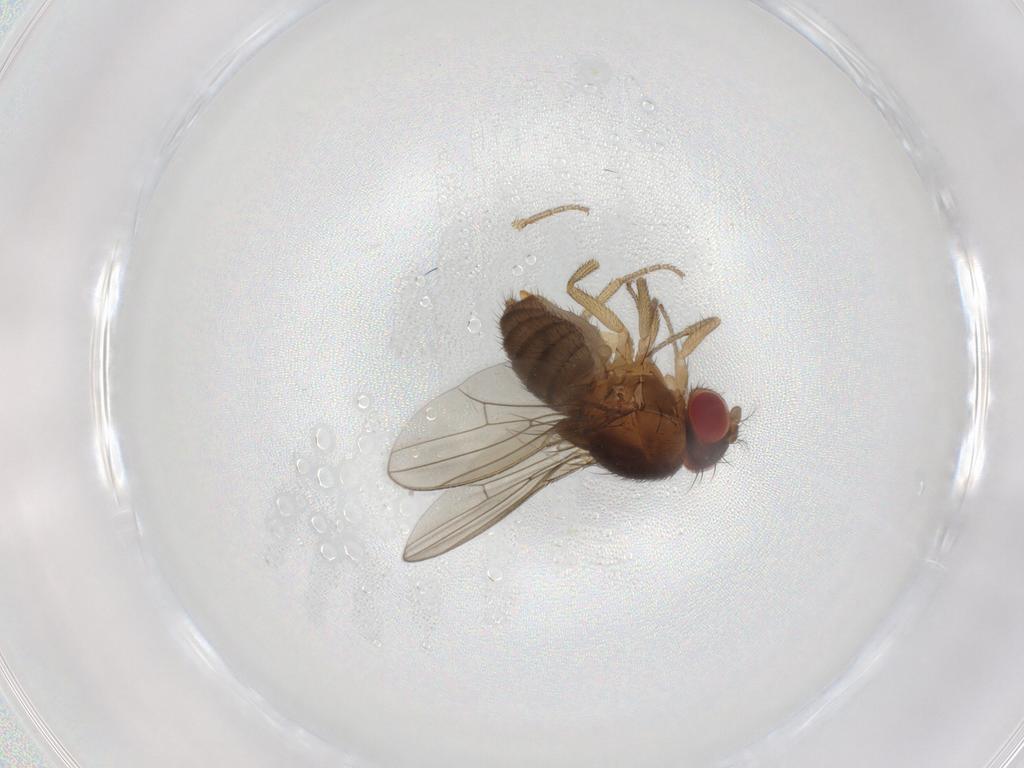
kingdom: Animalia
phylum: Arthropoda
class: Insecta
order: Diptera
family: Drosophilidae
